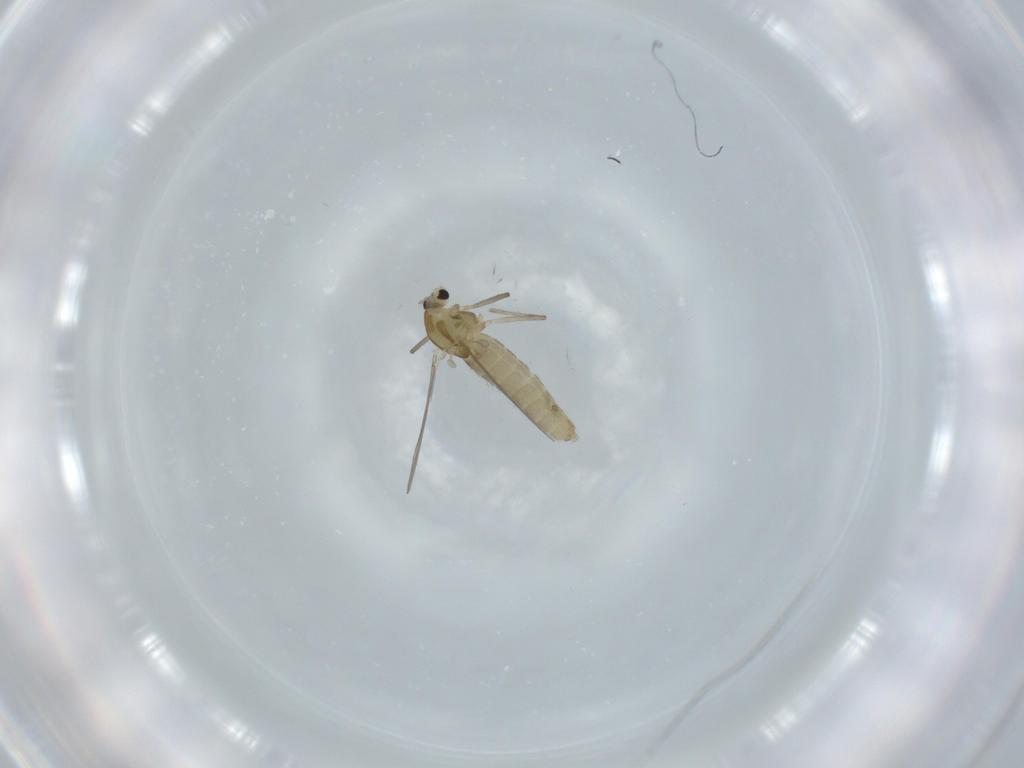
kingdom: Animalia
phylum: Arthropoda
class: Insecta
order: Diptera
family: Chironomidae
